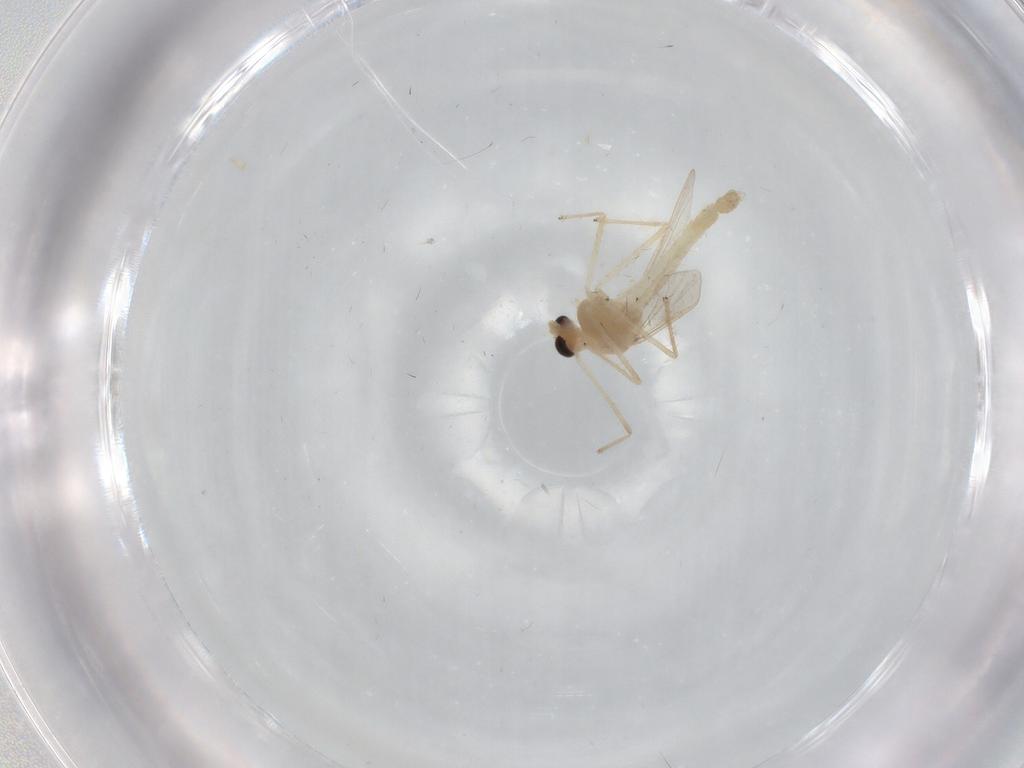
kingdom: Animalia
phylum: Arthropoda
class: Insecta
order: Diptera
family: Chironomidae
